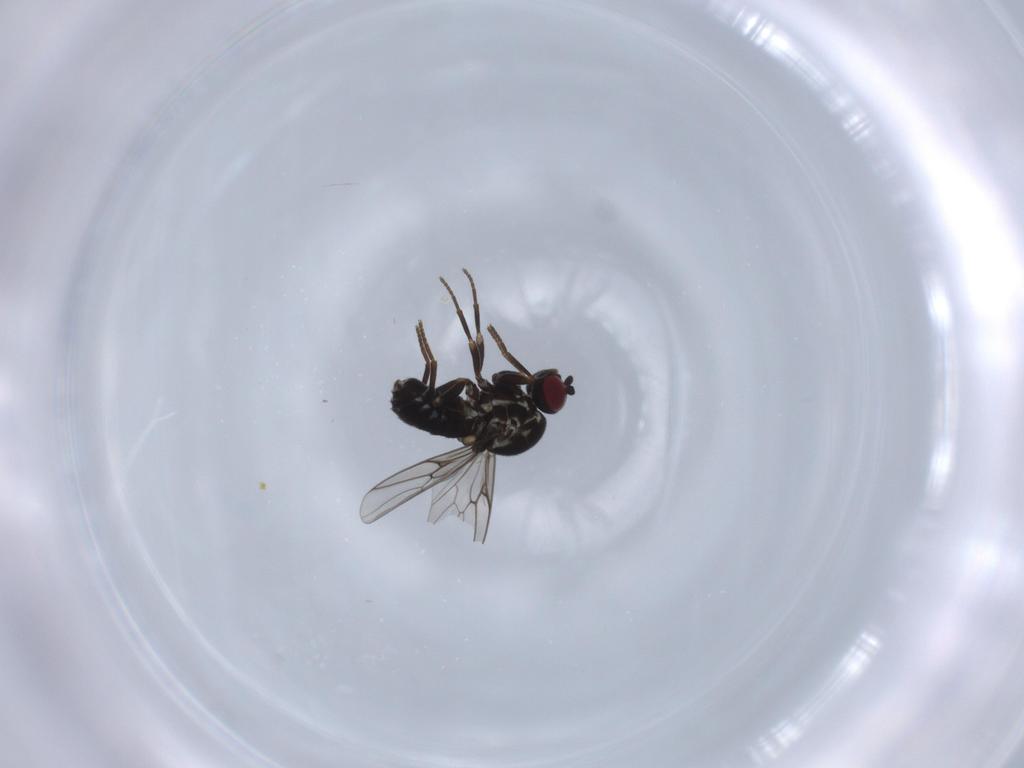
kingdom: Animalia
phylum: Arthropoda
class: Insecta
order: Diptera
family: Bombyliidae
